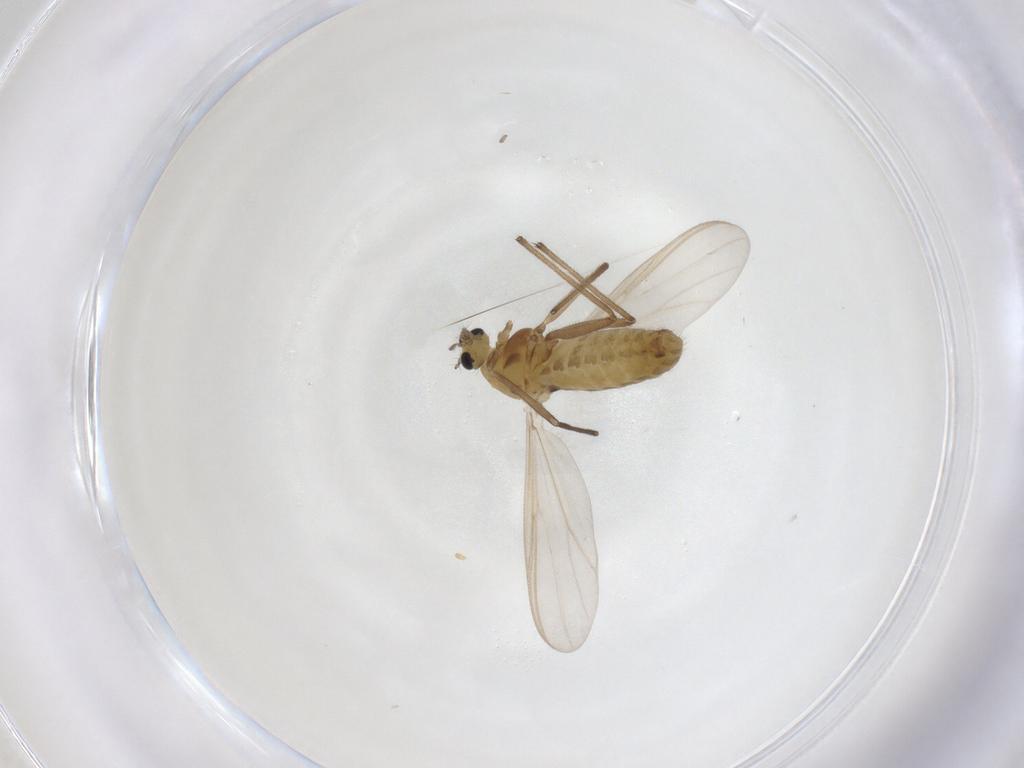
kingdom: Animalia
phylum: Arthropoda
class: Insecta
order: Diptera
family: Chironomidae
